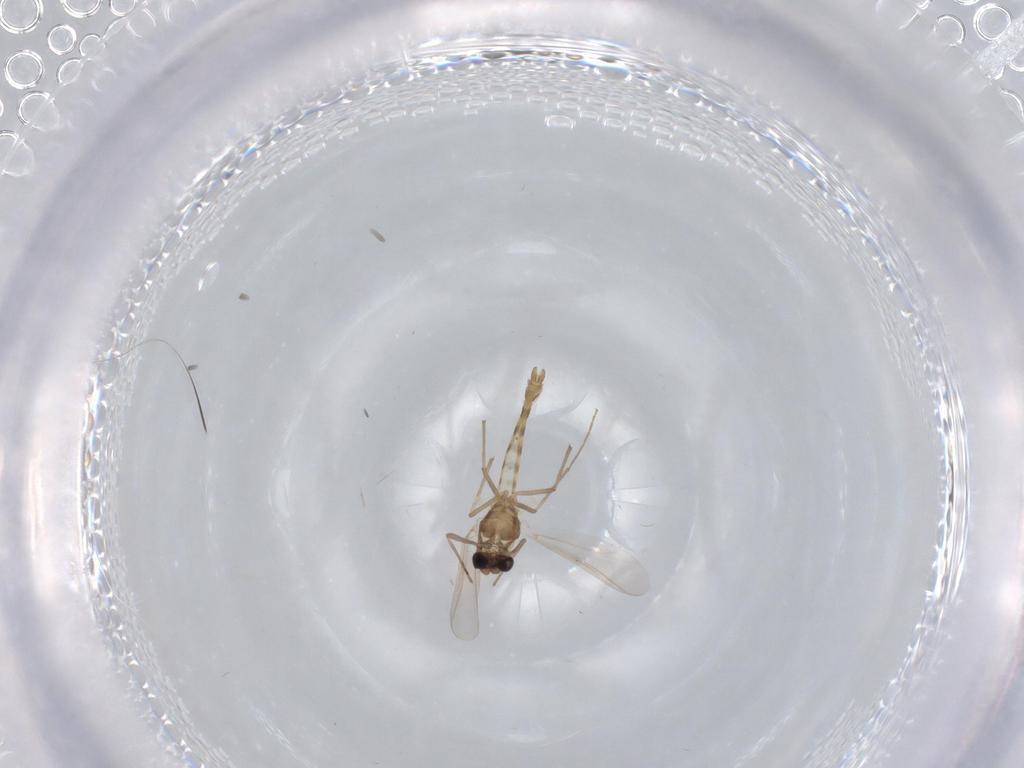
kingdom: Animalia
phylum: Arthropoda
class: Insecta
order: Diptera
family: Chironomidae
